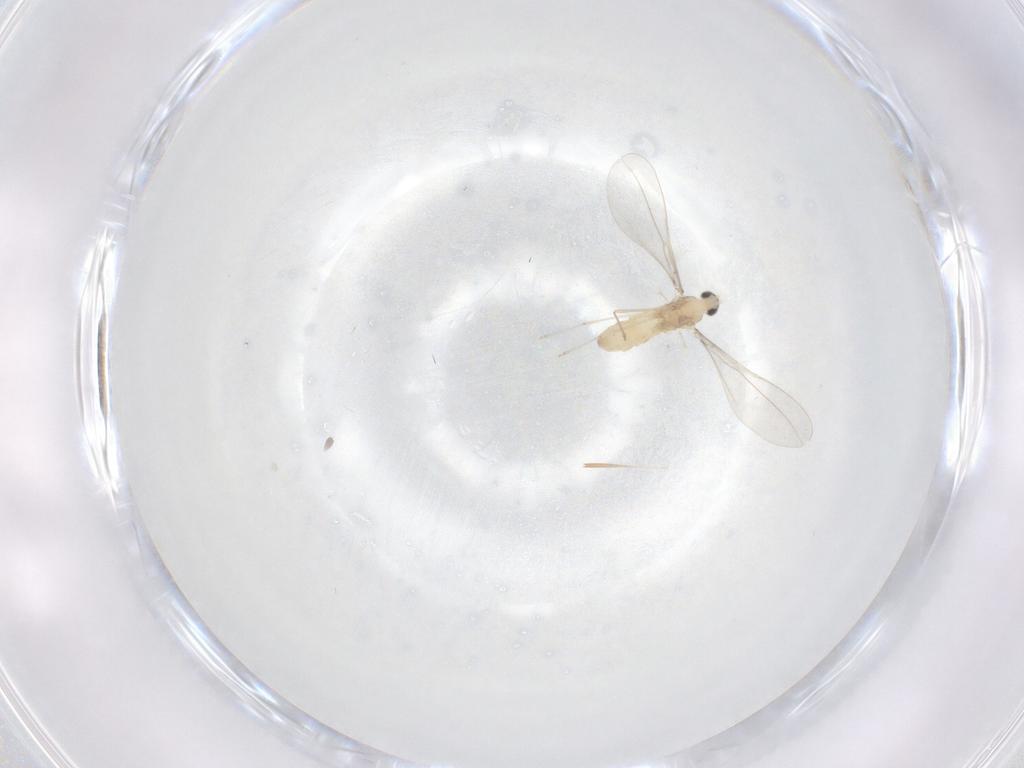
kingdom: Animalia
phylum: Arthropoda
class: Insecta
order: Diptera
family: Cecidomyiidae
